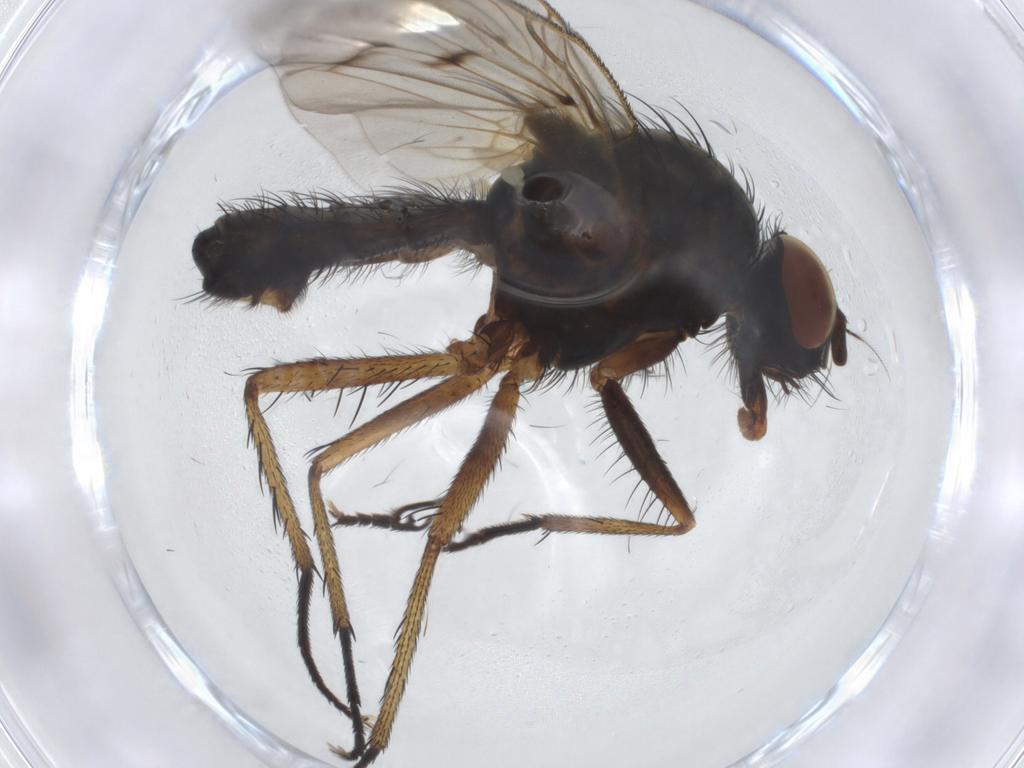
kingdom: Animalia
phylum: Arthropoda
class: Insecta
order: Diptera
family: Anthomyiidae
